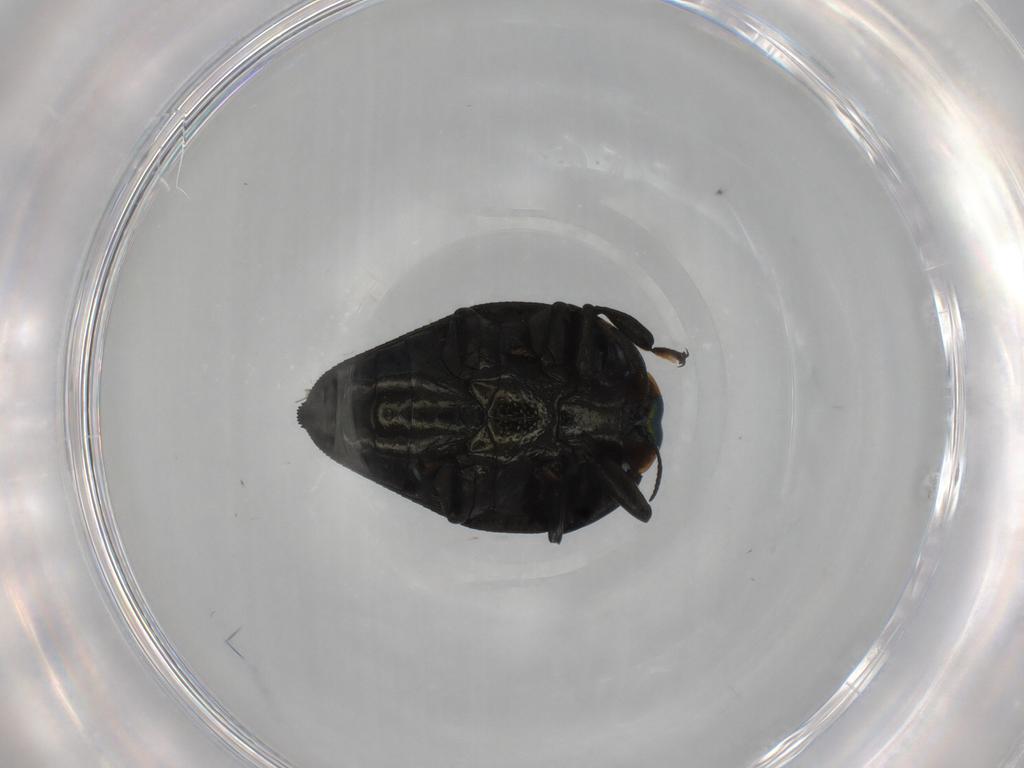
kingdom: Animalia
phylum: Arthropoda
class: Insecta
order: Coleoptera
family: Buprestidae
